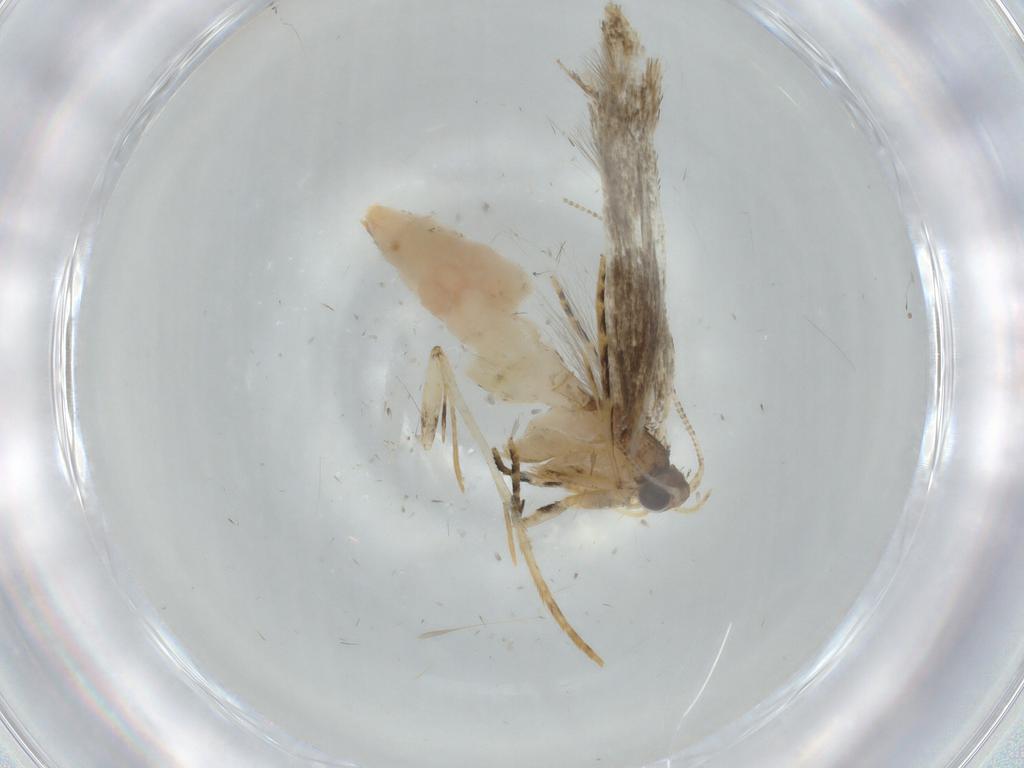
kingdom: Animalia
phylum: Arthropoda
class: Insecta
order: Lepidoptera
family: Tineidae
